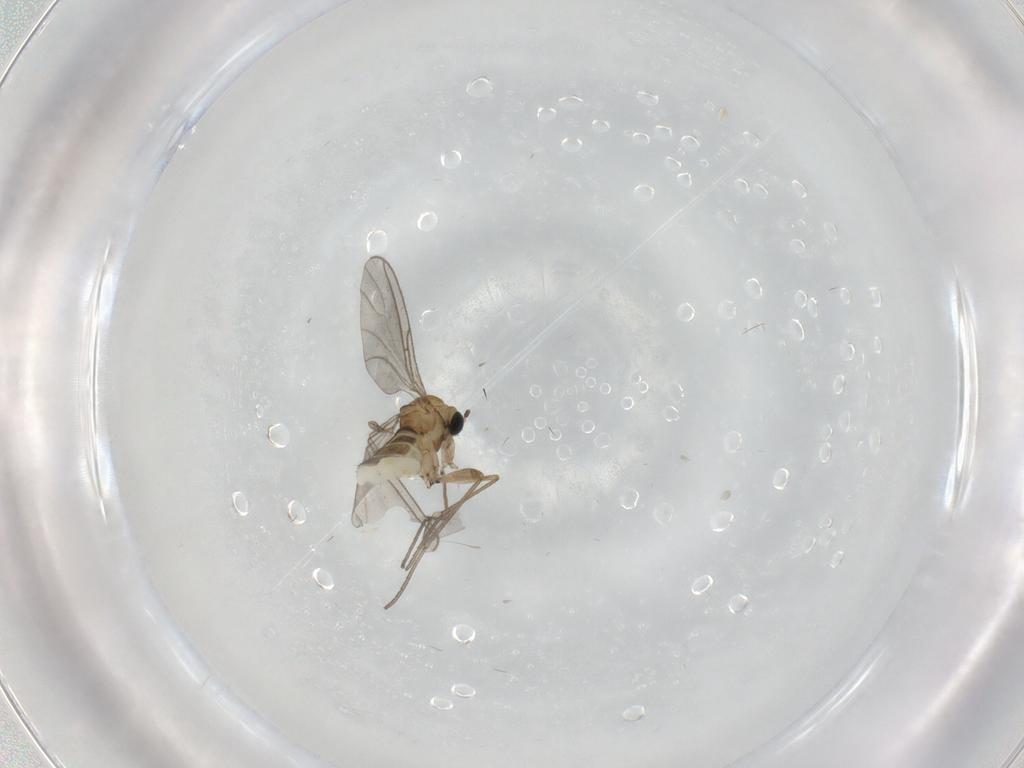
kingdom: Animalia
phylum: Arthropoda
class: Insecta
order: Diptera
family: Sciaridae
